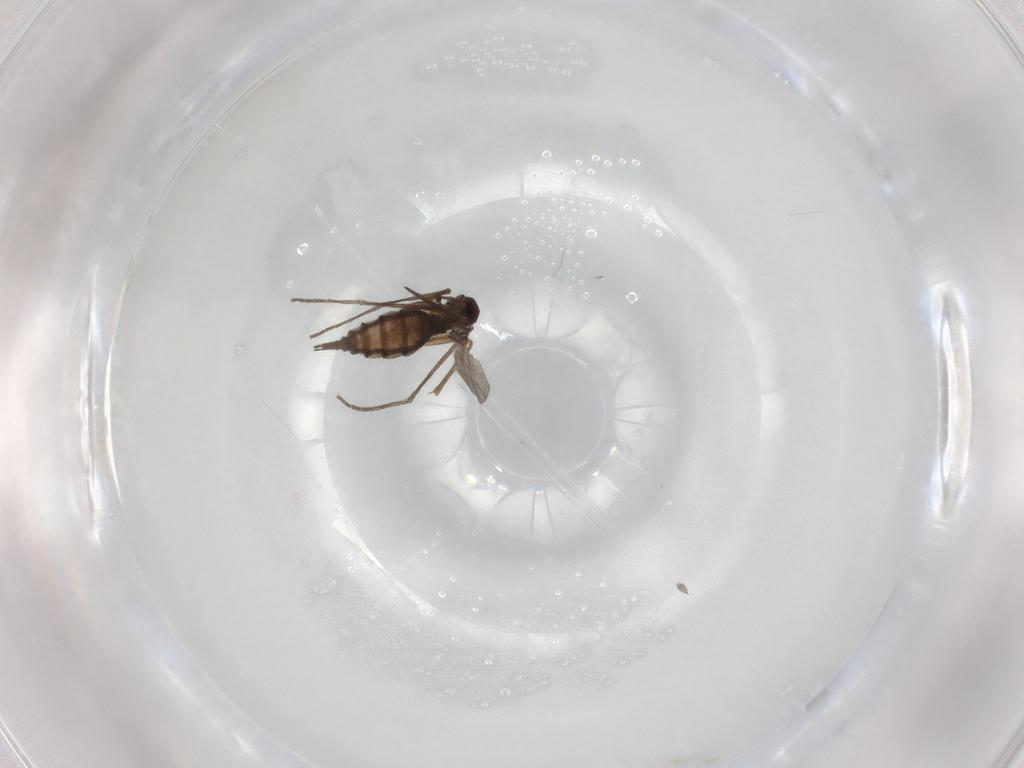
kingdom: Animalia
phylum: Arthropoda
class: Insecta
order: Diptera
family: Sciaridae
